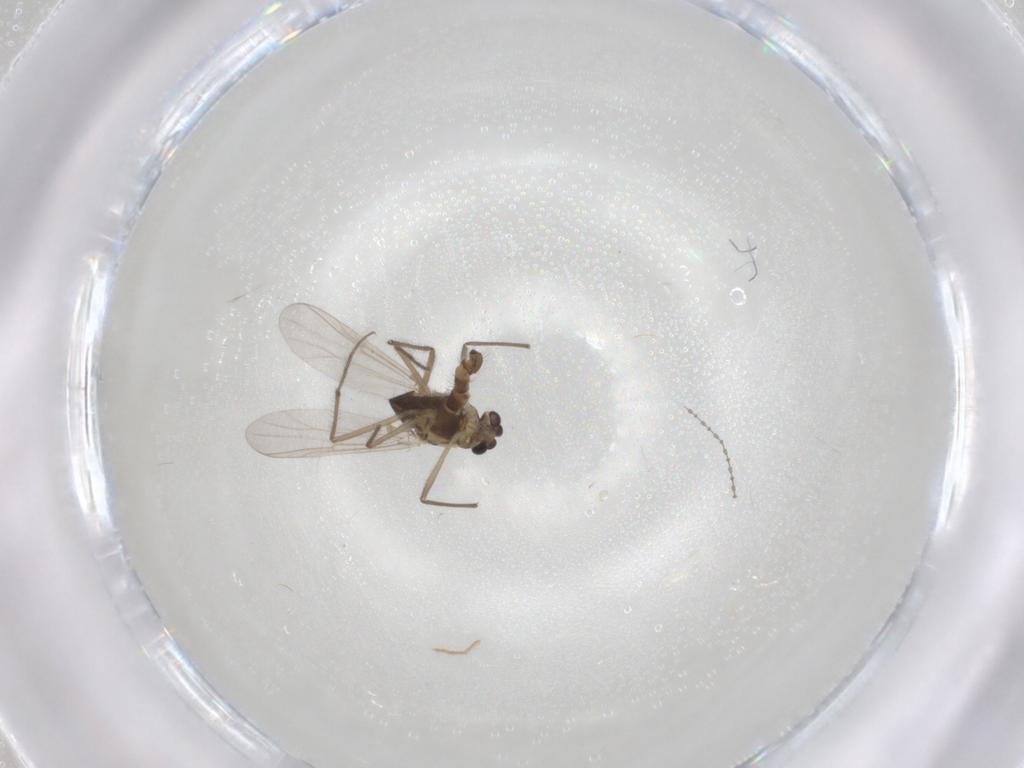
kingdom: Animalia
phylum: Arthropoda
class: Insecta
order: Diptera
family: Chironomidae
